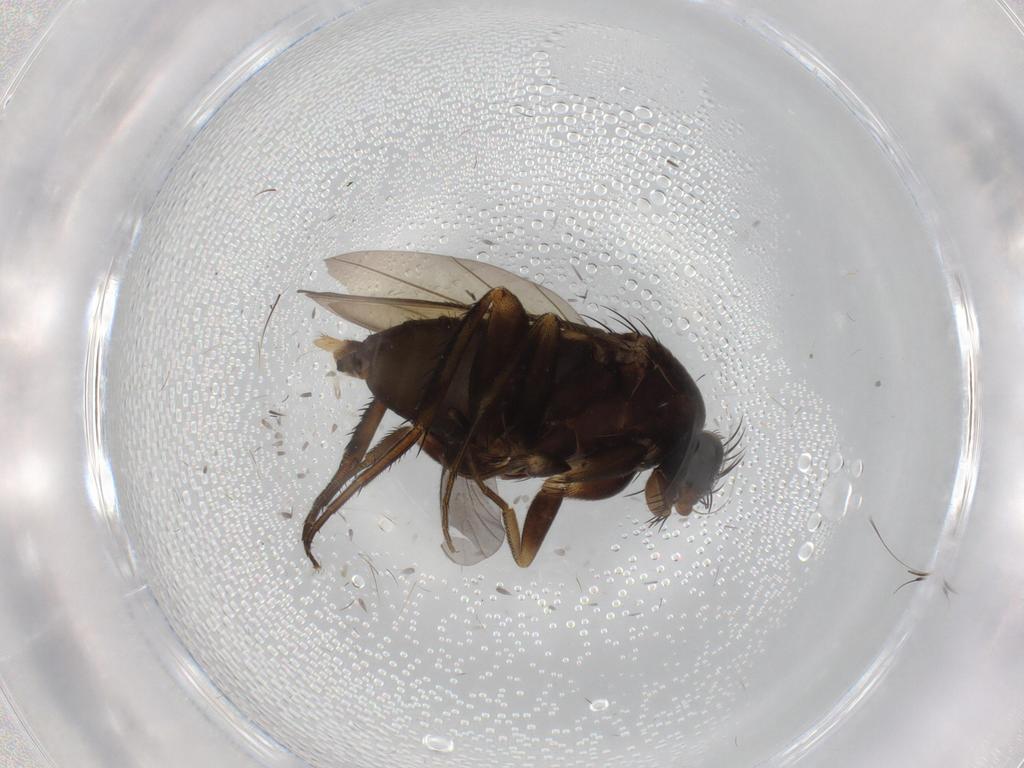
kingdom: Animalia
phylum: Arthropoda
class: Insecta
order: Diptera
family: Phoridae
